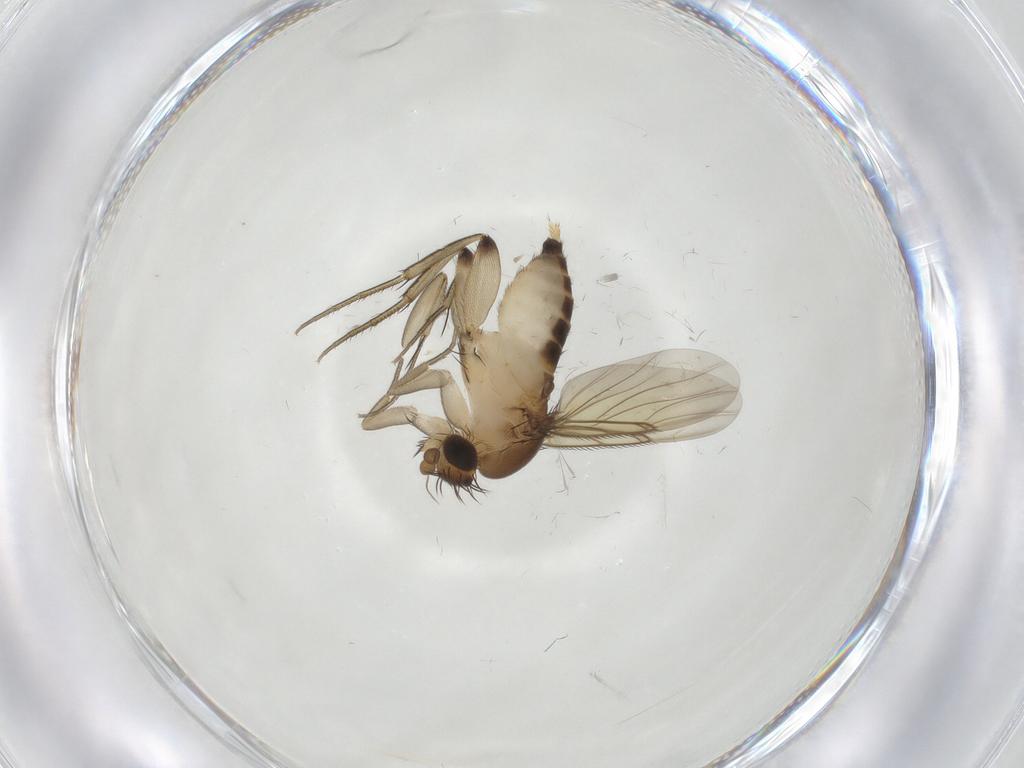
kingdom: Animalia
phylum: Arthropoda
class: Insecta
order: Diptera
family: Phoridae
